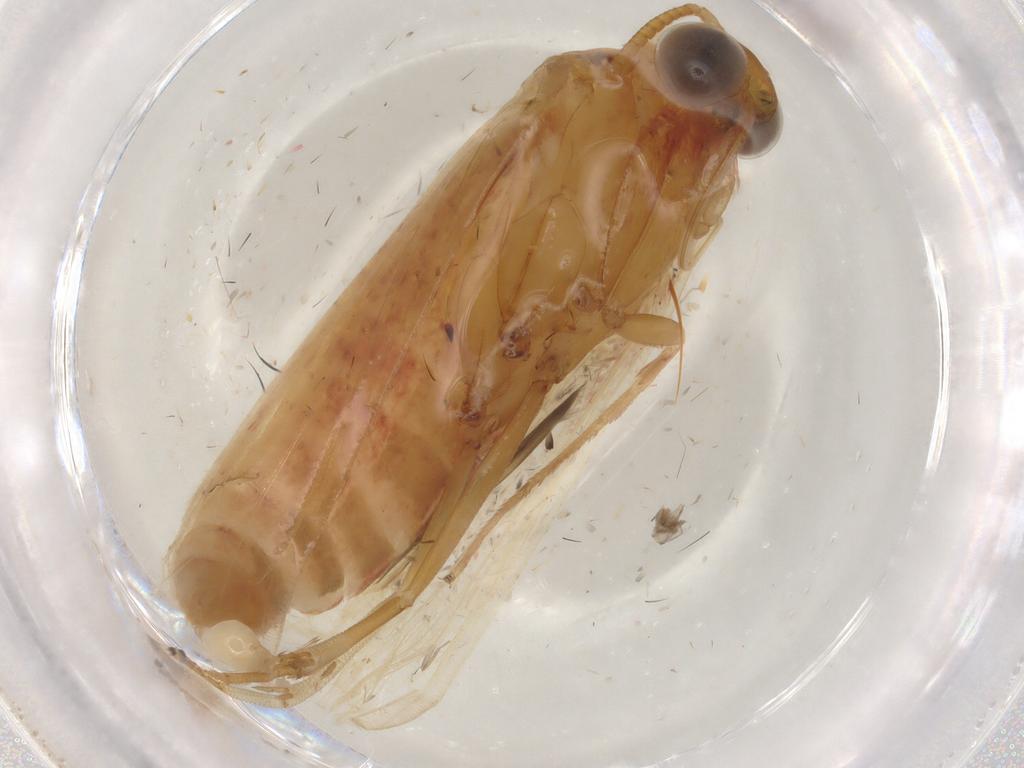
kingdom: Animalia
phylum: Arthropoda
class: Insecta
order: Lepidoptera
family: Pyralidae
